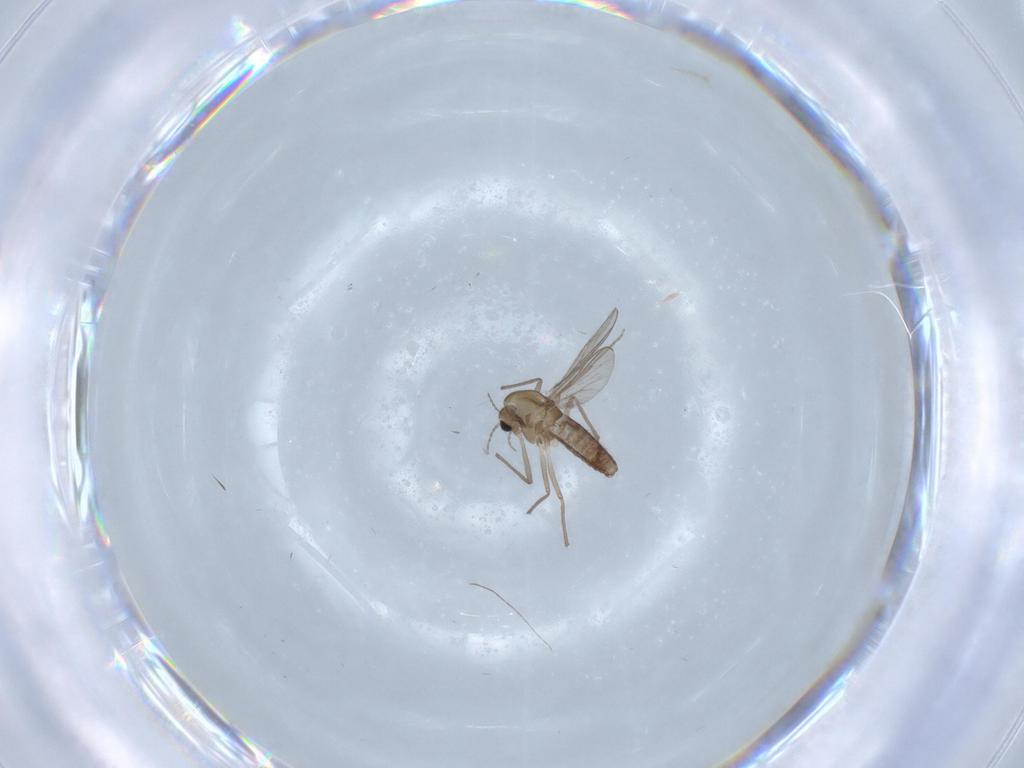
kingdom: Animalia
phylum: Arthropoda
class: Insecta
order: Diptera
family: Chironomidae
